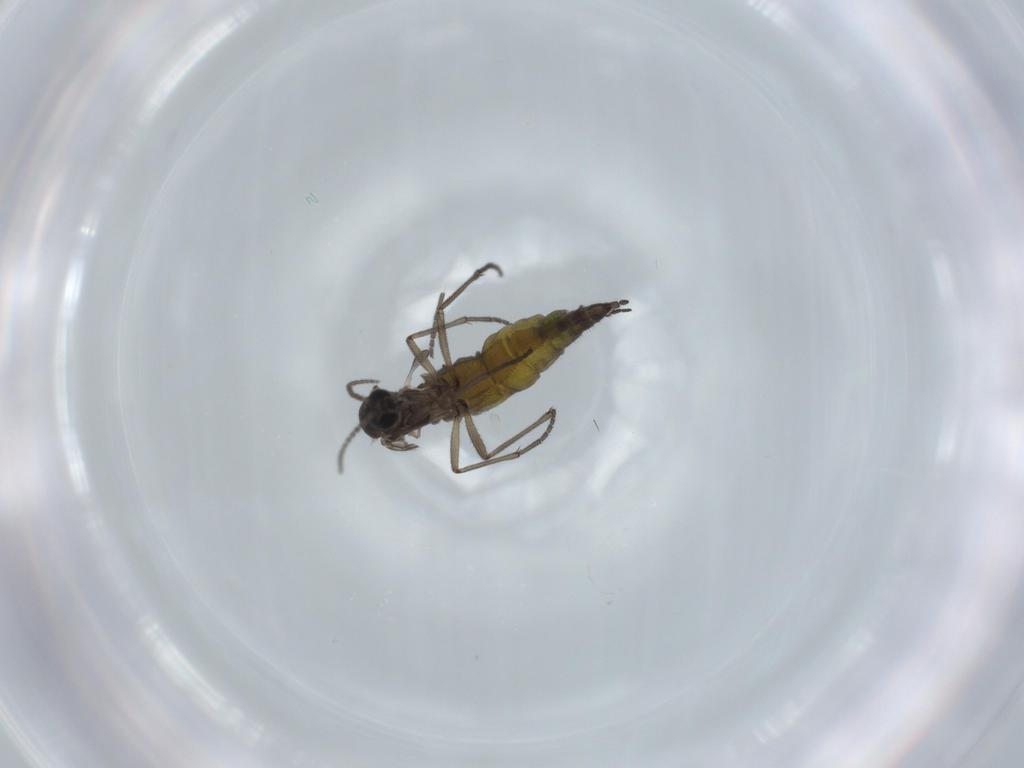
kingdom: Animalia
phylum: Arthropoda
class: Insecta
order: Diptera
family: Sciaridae
